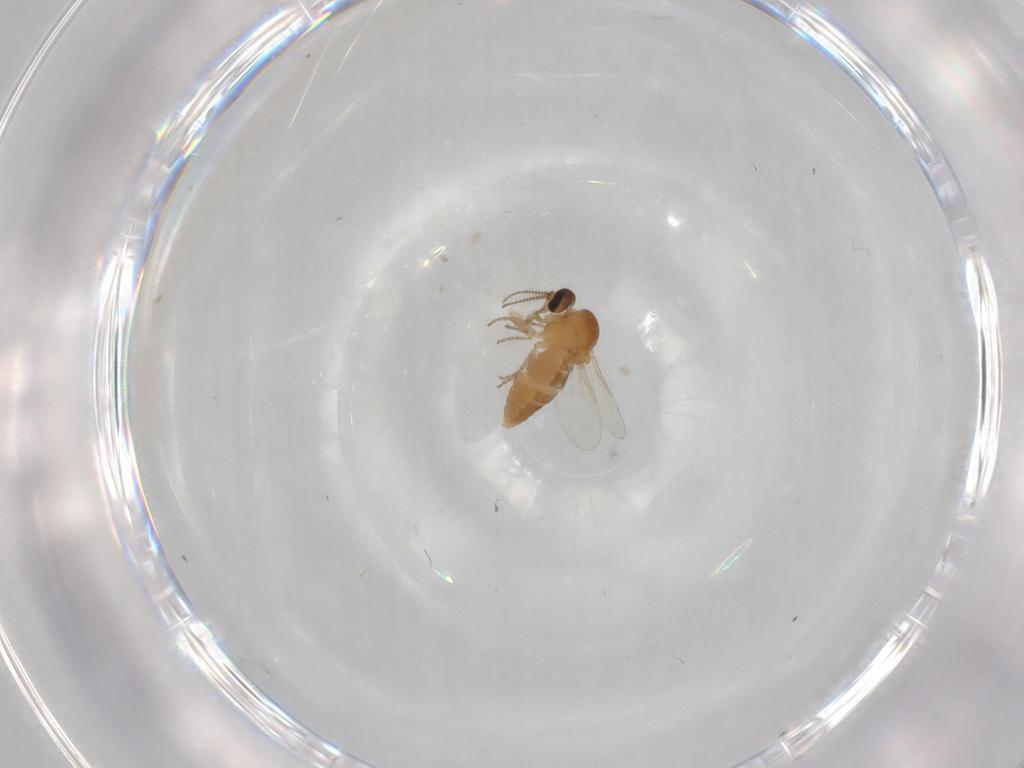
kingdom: Animalia
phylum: Arthropoda
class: Insecta
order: Diptera
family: Ceratopogonidae
